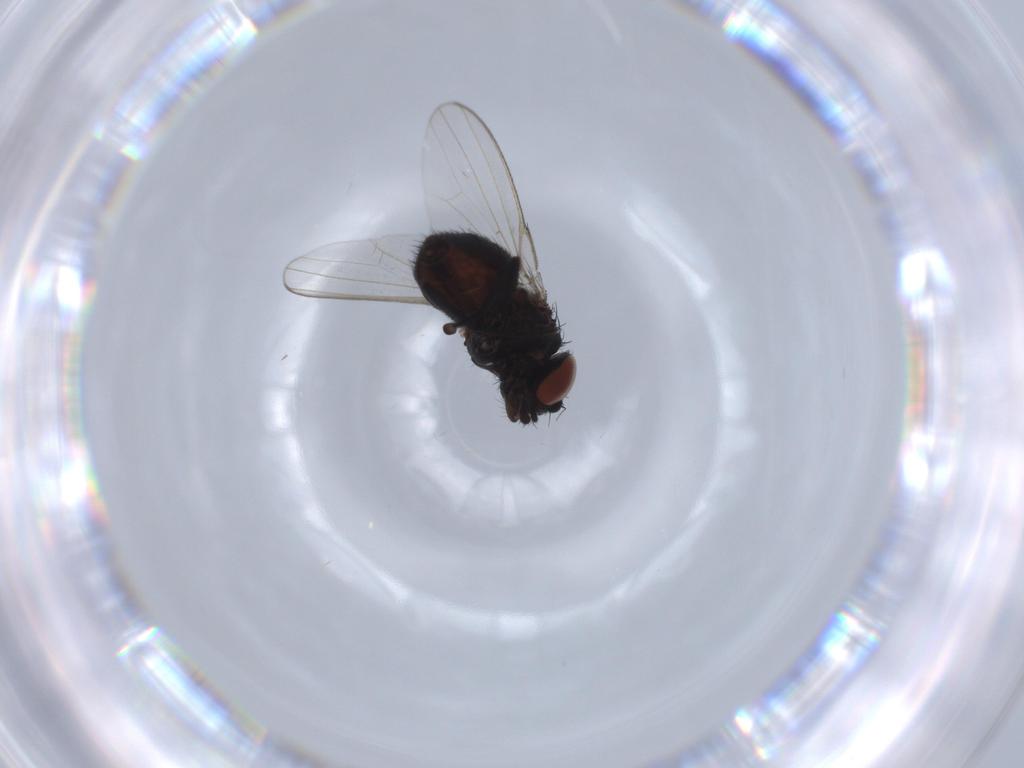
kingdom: Animalia
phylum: Arthropoda
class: Insecta
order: Diptera
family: Milichiidae
